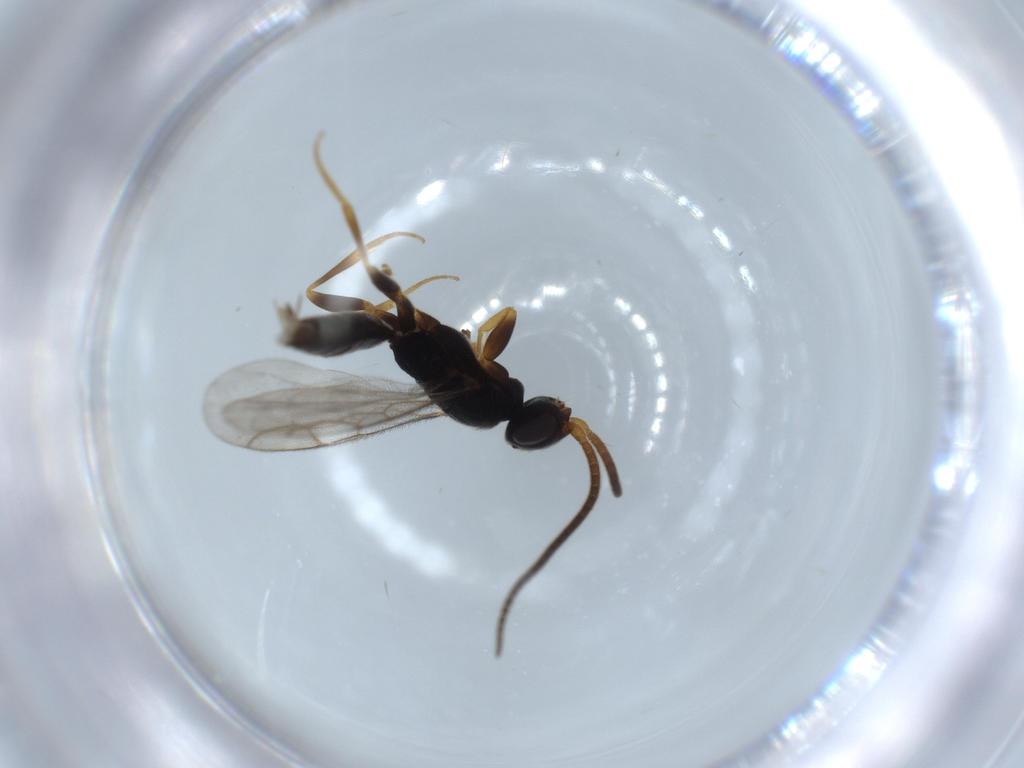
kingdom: Animalia
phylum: Arthropoda
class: Insecta
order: Hymenoptera
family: Sclerogibbidae
